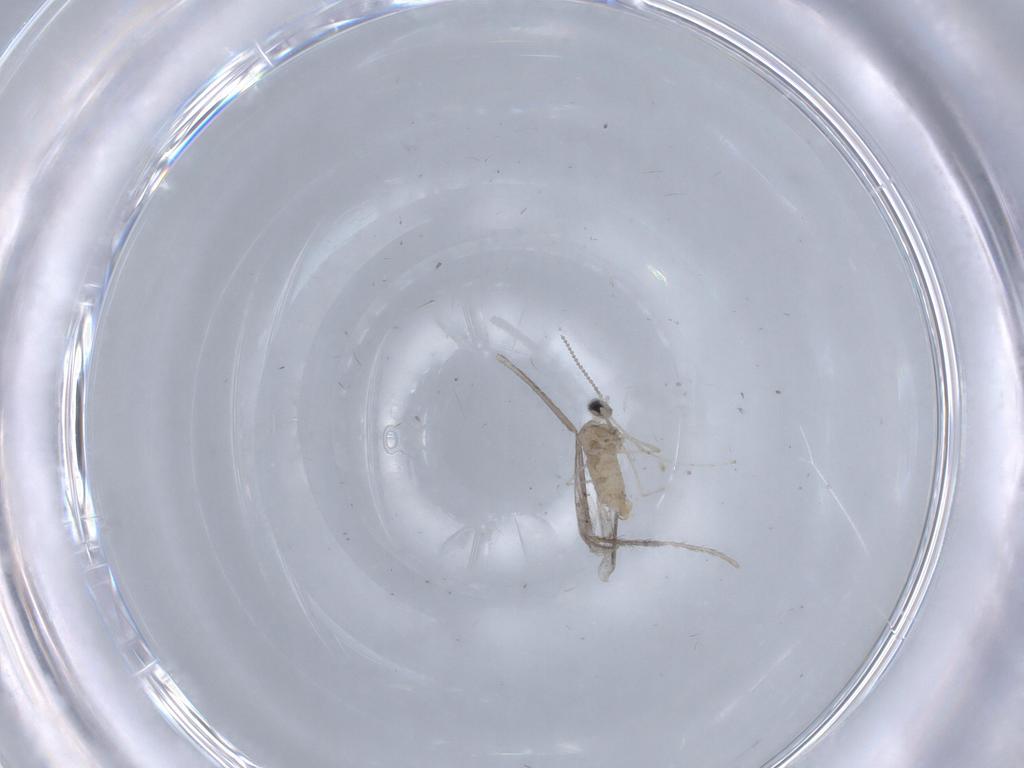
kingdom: Animalia
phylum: Arthropoda
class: Insecta
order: Diptera
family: Cecidomyiidae
